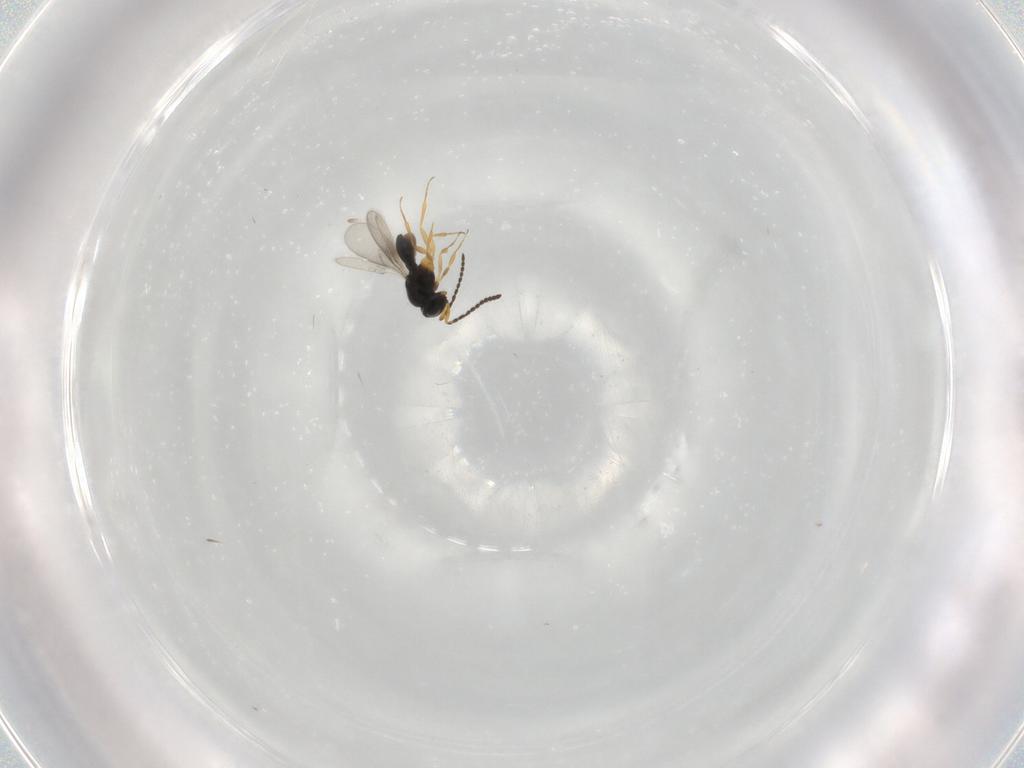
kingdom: Animalia
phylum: Arthropoda
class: Insecta
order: Hymenoptera
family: Scelionidae
